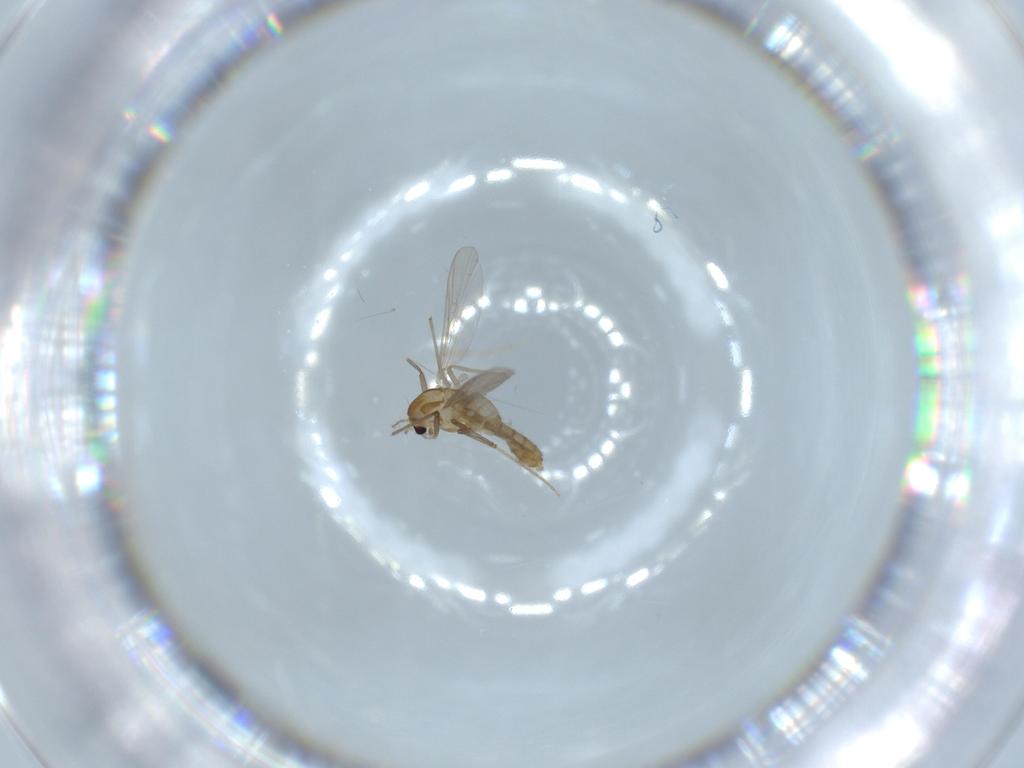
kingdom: Animalia
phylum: Arthropoda
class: Insecta
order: Diptera
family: Chironomidae
